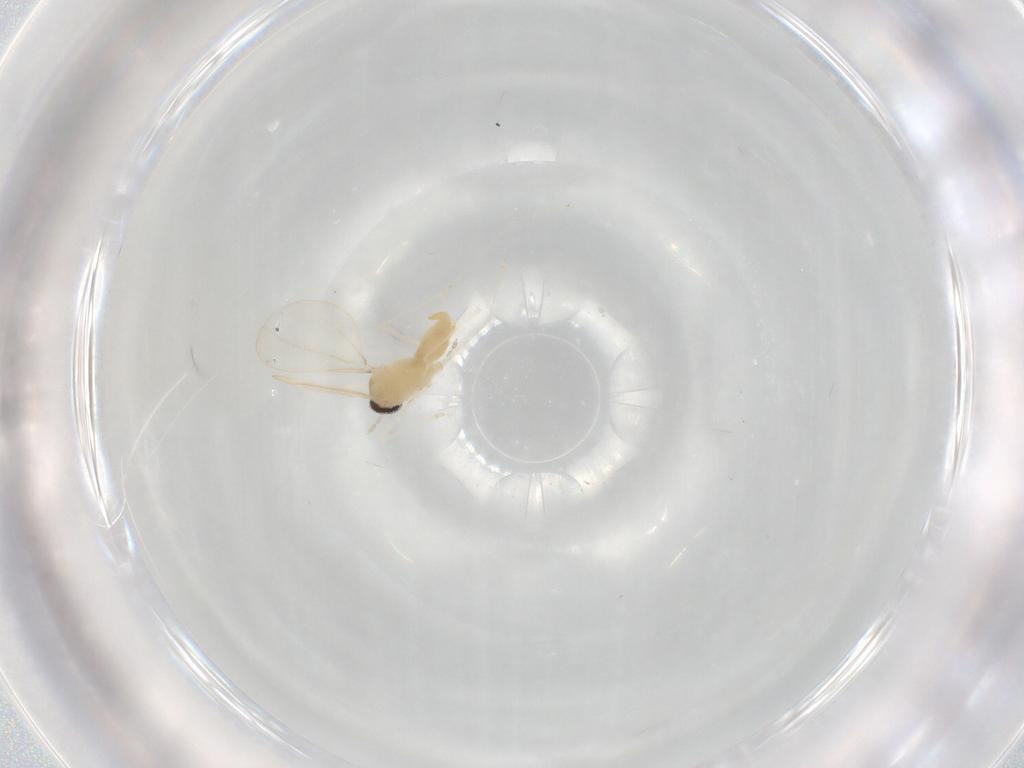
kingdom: Animalia
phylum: Arthropoda
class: Insecta
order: Diptera
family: Cecidomyiidae
